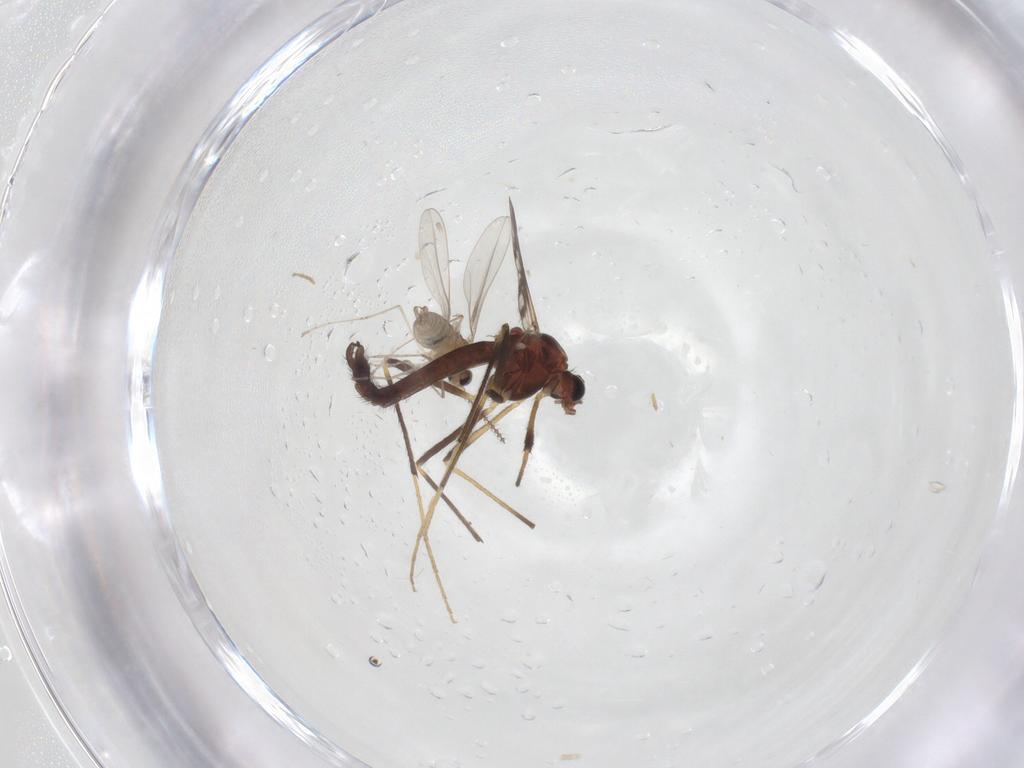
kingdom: Animalia
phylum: Arthropoda
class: Insecta
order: Diptera
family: Chironomidae
